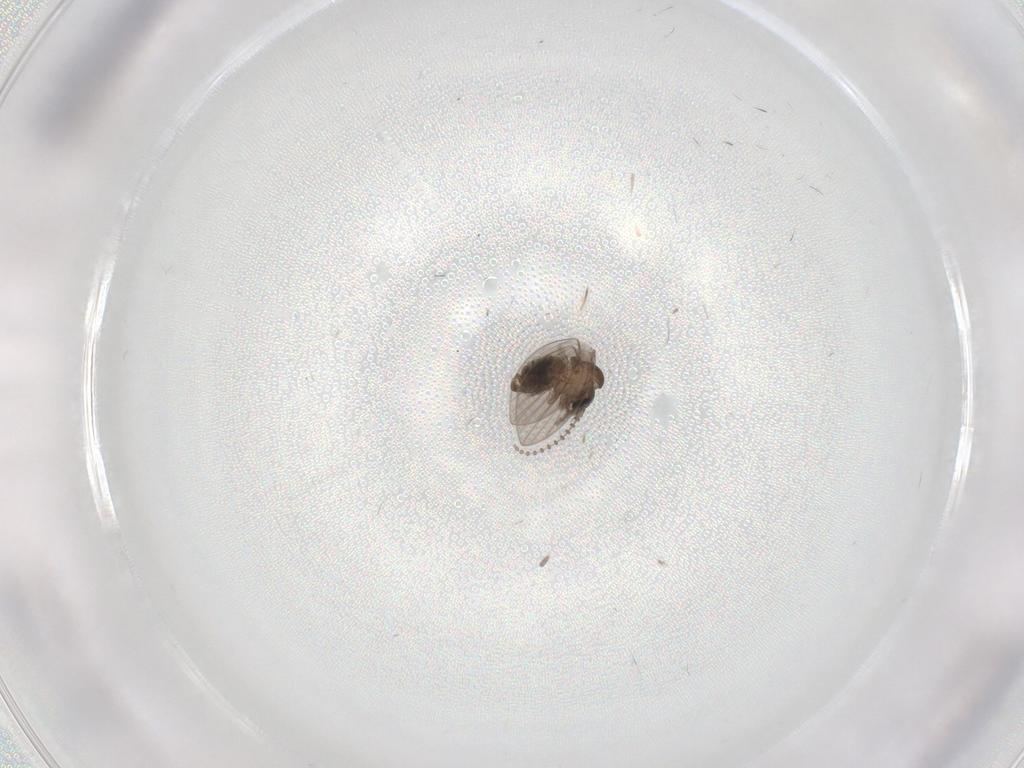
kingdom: Animalia
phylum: Arthropoda
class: Insecta
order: Diptera
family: Psychodidae
